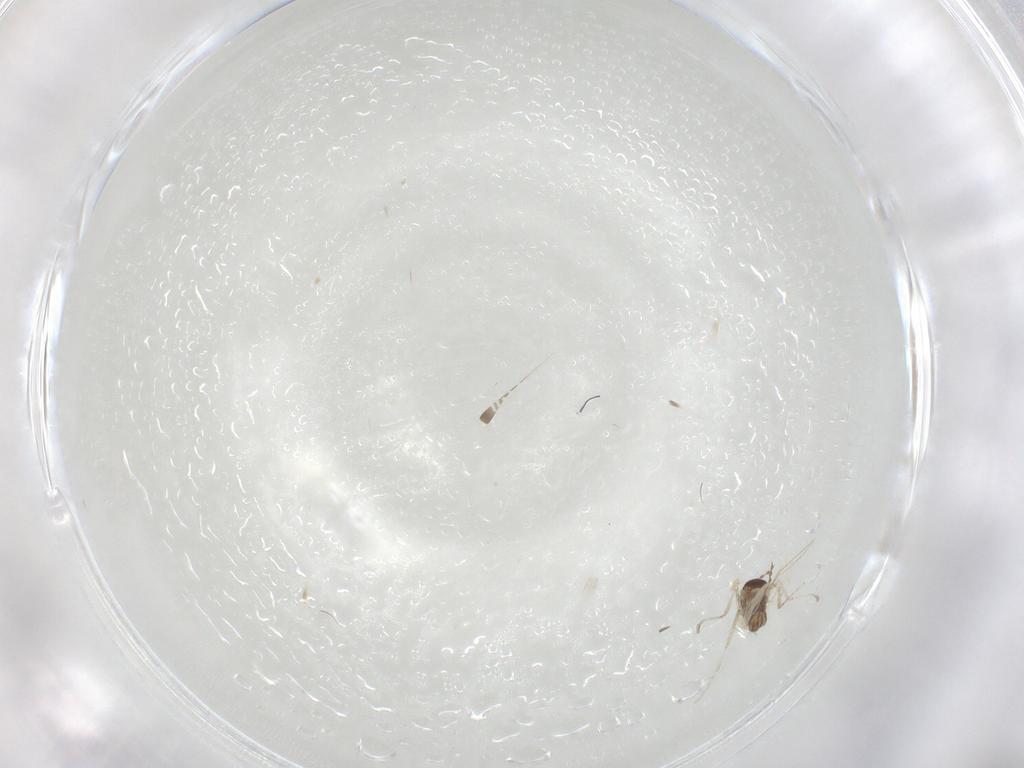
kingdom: Animalia
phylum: Arthropoda
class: Insecta
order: Diptera
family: Cecidomyiidae
